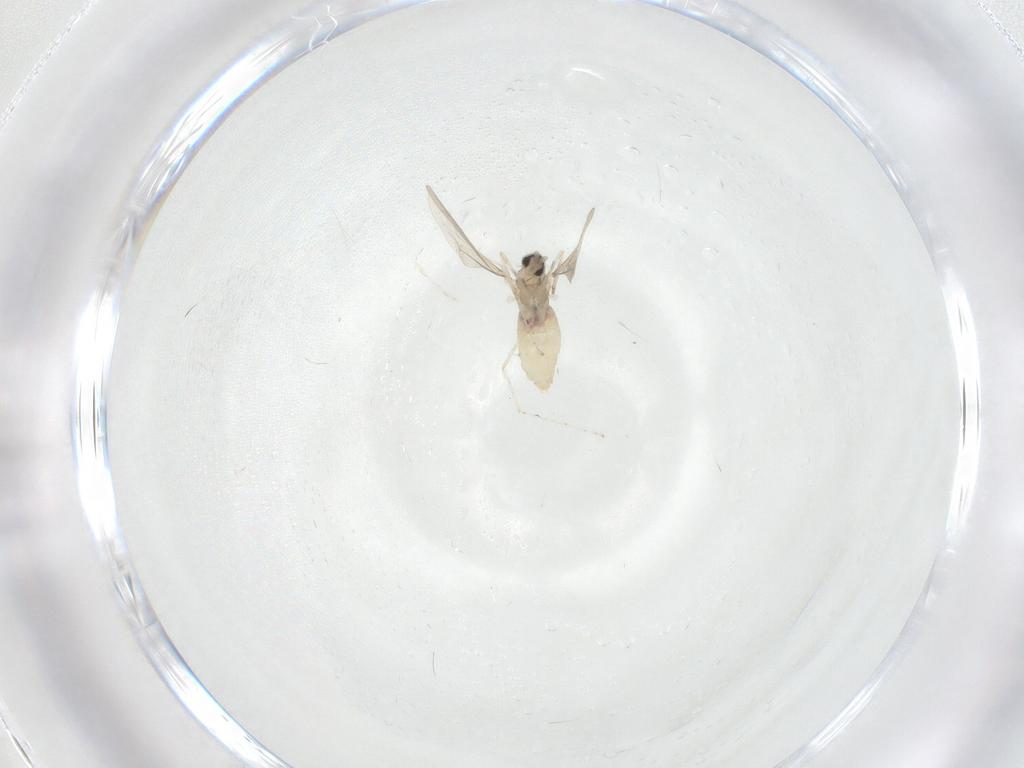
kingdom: Animalia
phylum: Arthropoda
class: Insecta
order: Diptera
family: Cecidomyiidae
